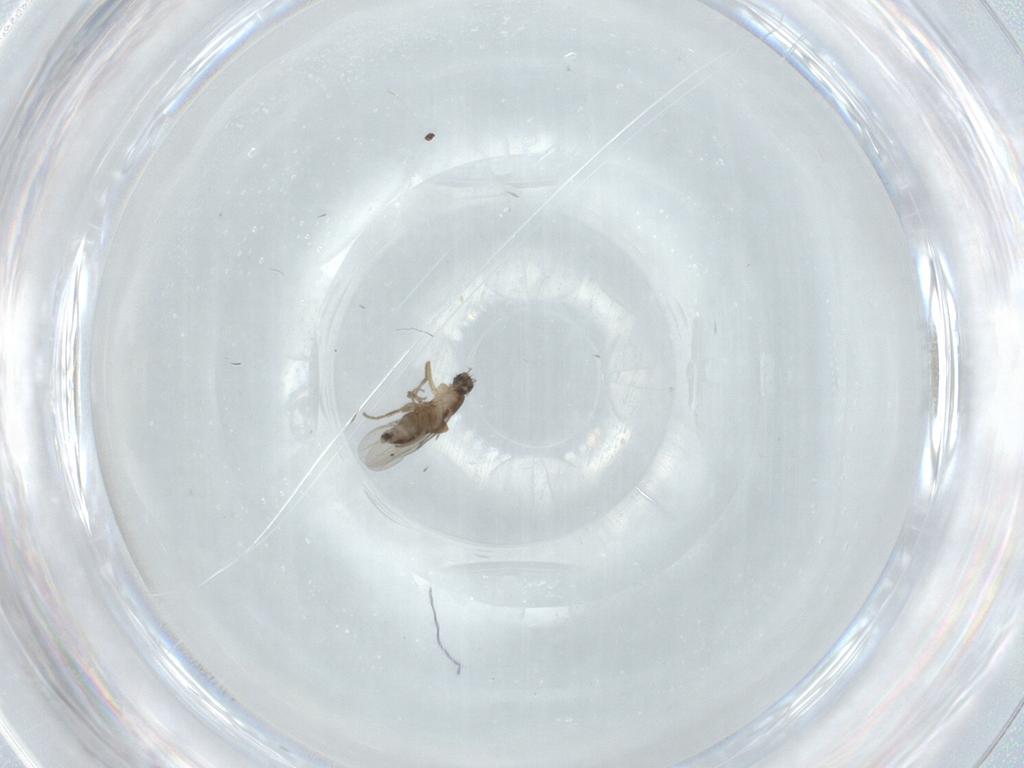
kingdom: Animalia
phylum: Arthropoda
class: Insecta
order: Diptera
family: Phoridae
